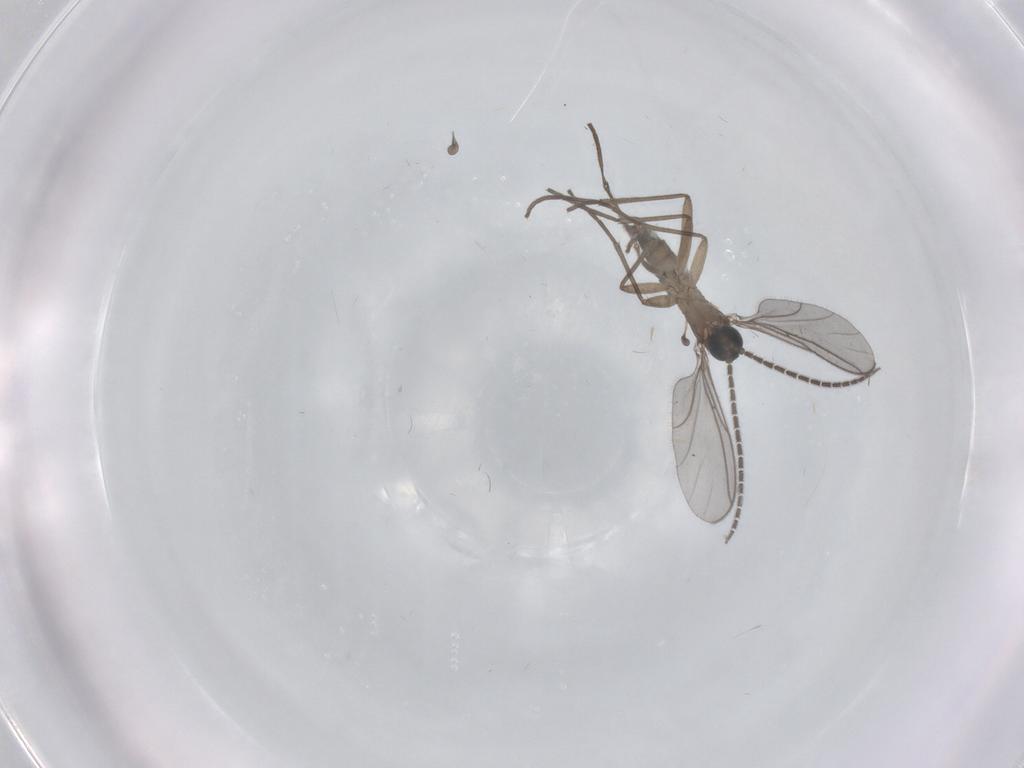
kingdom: Animalia
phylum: Arthropoda
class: Insecta
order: Diptera
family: Sciaridae
